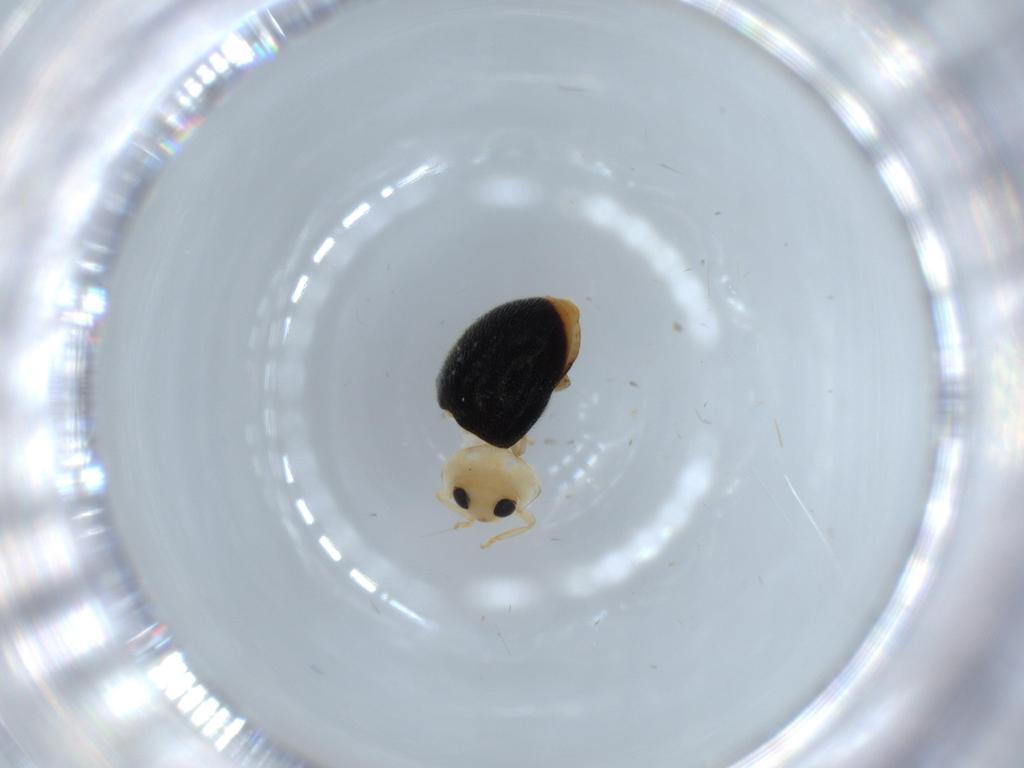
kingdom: Animalia
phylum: Arthropoda
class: Insecta
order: Coleoptera
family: Coccinellidae
